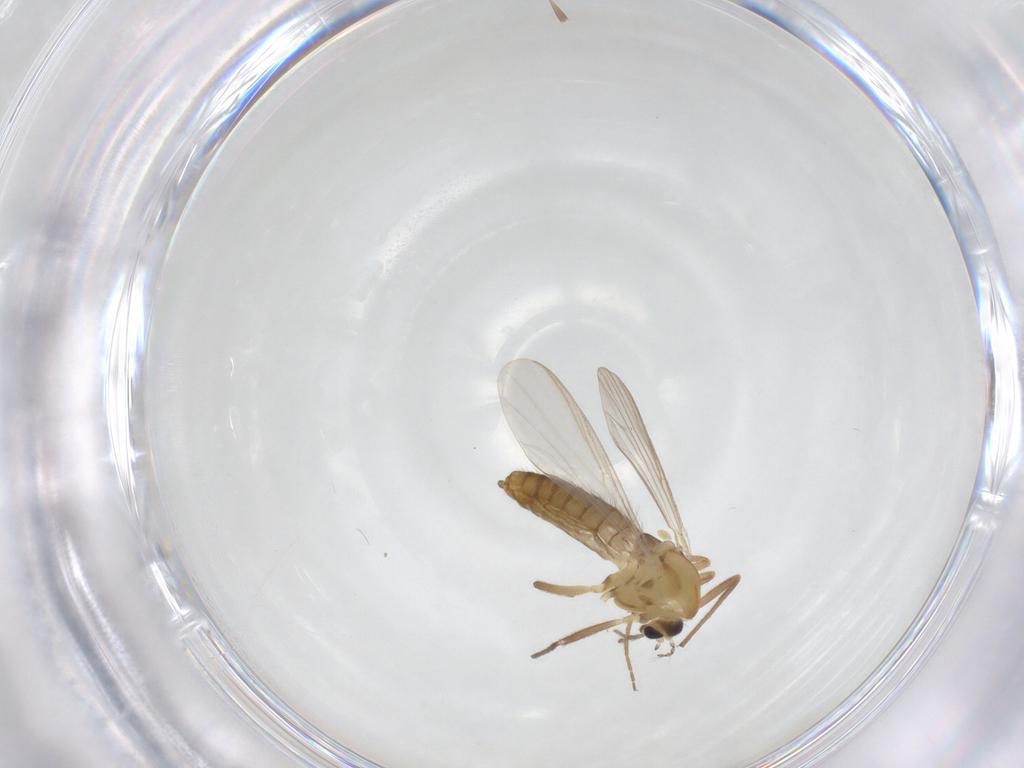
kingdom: Animalia
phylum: Arthropoda
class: Insecta
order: Diptera
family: Chironomidae
